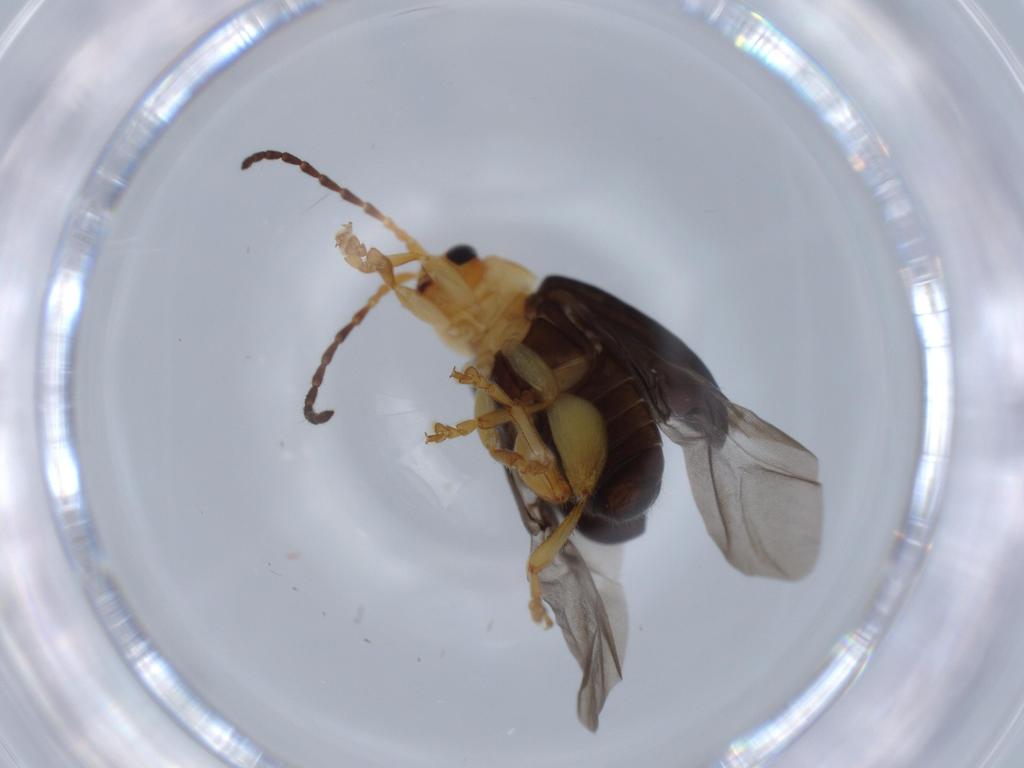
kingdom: Animalia
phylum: Arthropoda
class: Insecta
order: Coleoptera
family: Chrysomelidae
